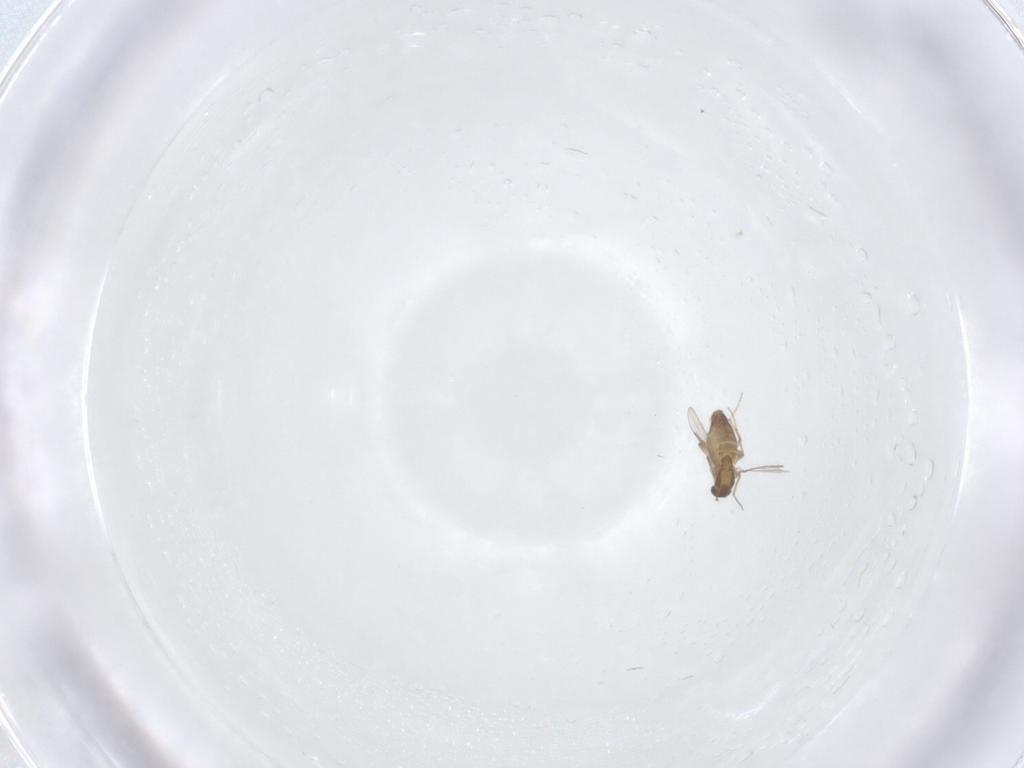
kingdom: Animalia
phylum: Arthropoda
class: Insecta
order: Diptera
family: Chironomidae
